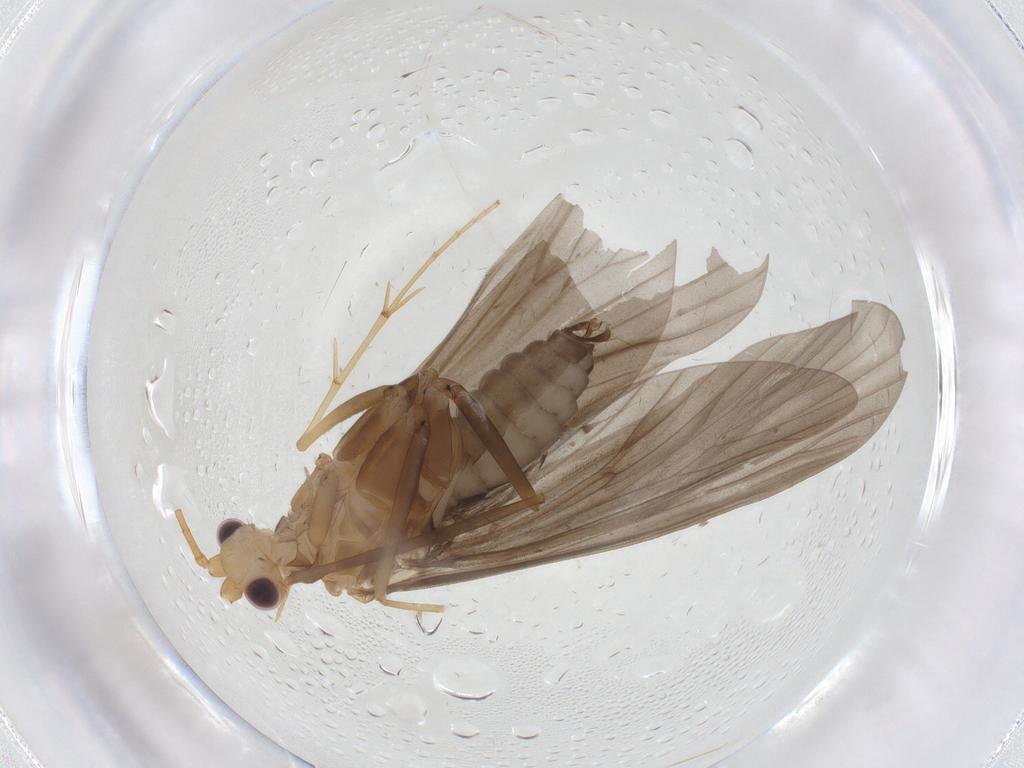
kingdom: Animalia
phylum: Arthropoda
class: Insecta
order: Trichoptera
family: Hydropsychidae
